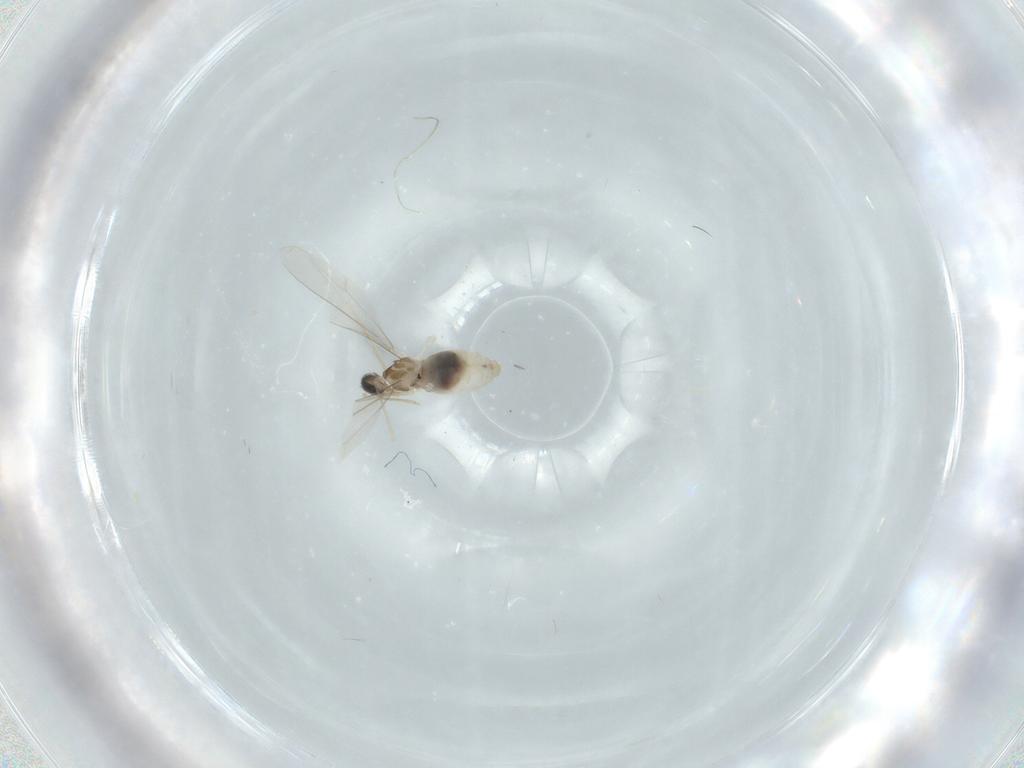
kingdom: Animalia
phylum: Arthropoda
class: Insecta
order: Diptera
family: Cecidomyiidae
